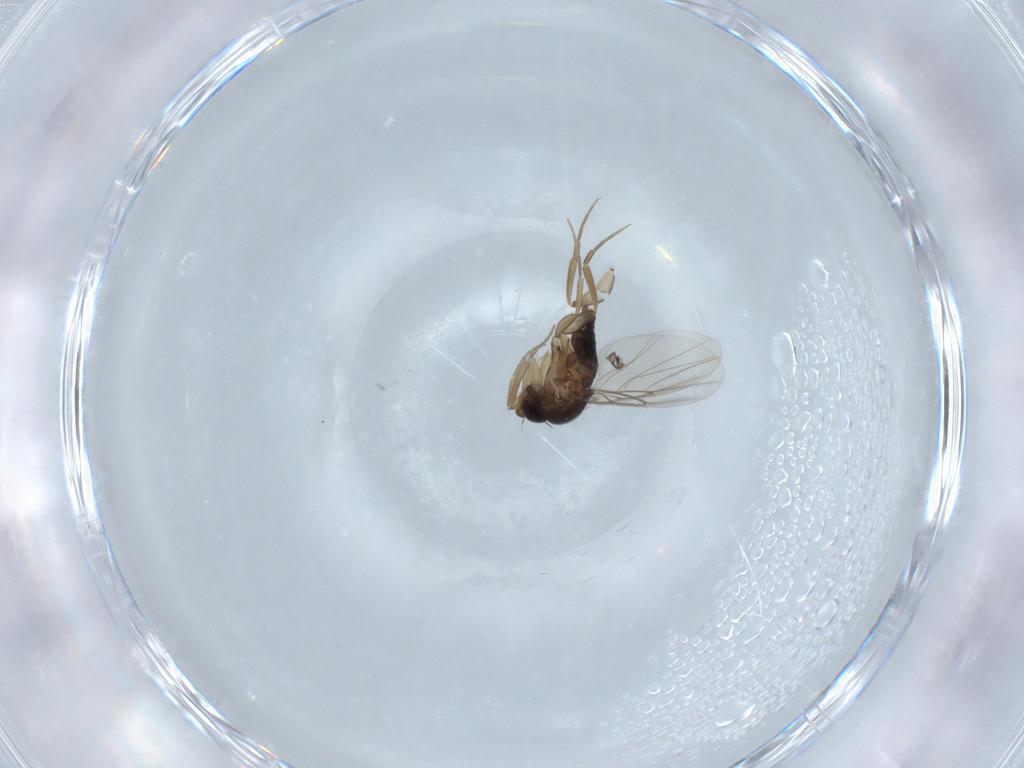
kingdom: Animalia
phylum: Arthropoda
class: Insecta
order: Diptera
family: Phoridae
